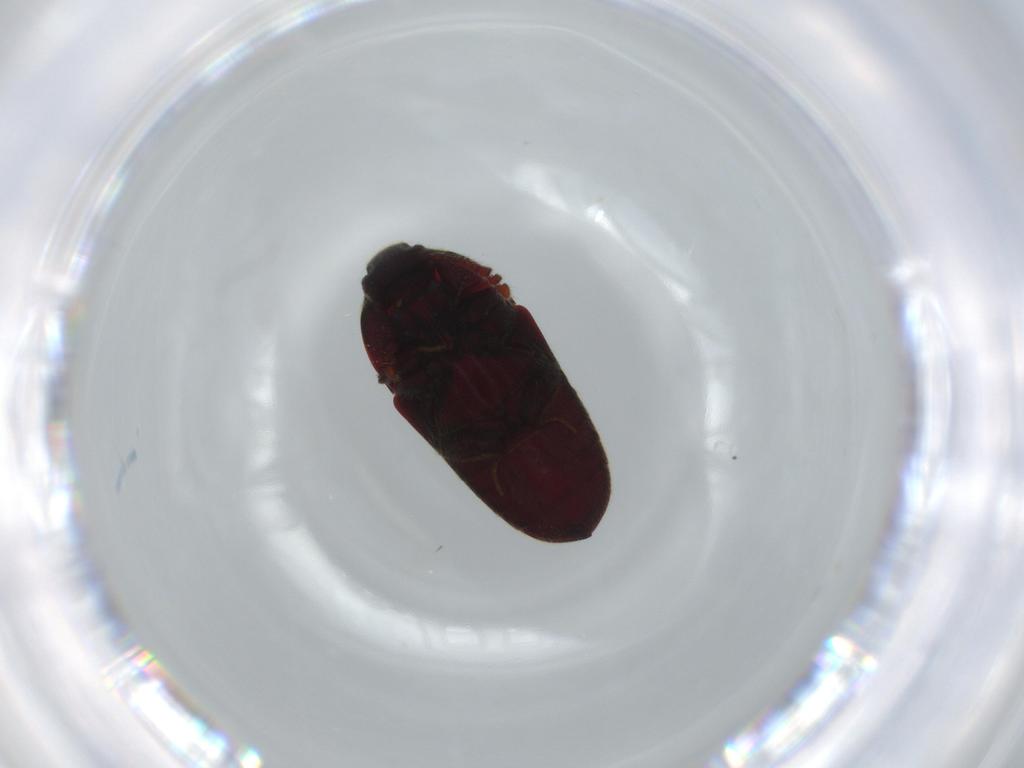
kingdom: Animalia
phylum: Arthropoda
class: Insecta
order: Coleoptera
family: Throscidae
